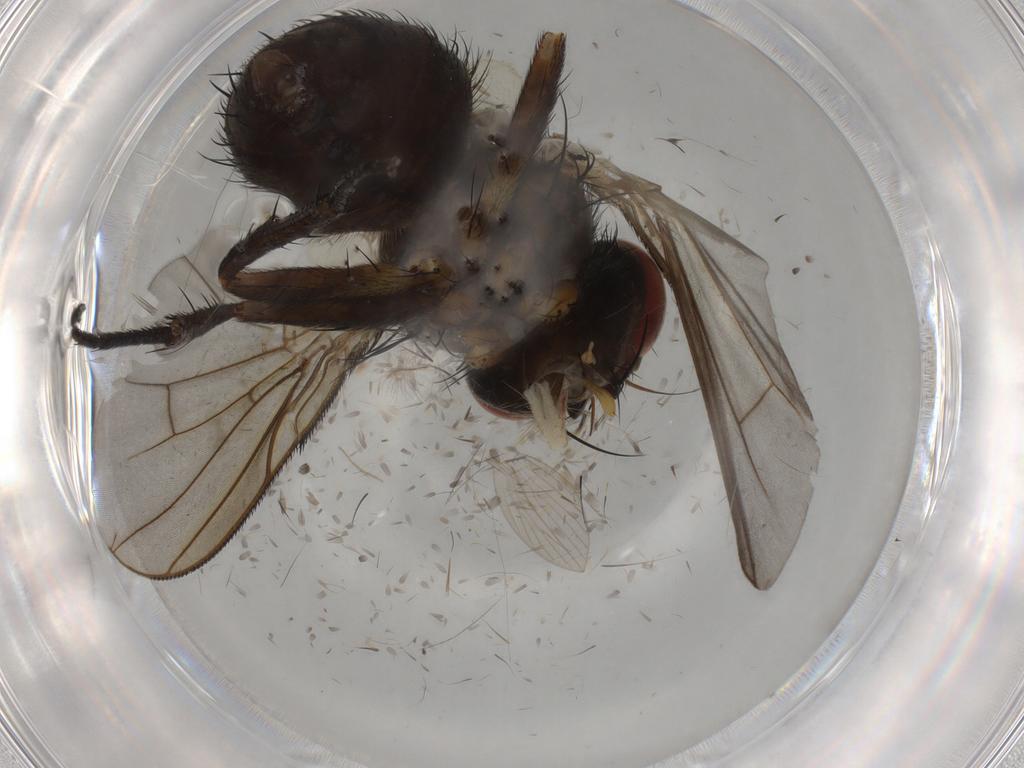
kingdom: Animalia
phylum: Arthropoda
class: Insecta
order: Diptera
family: Tachinidae
